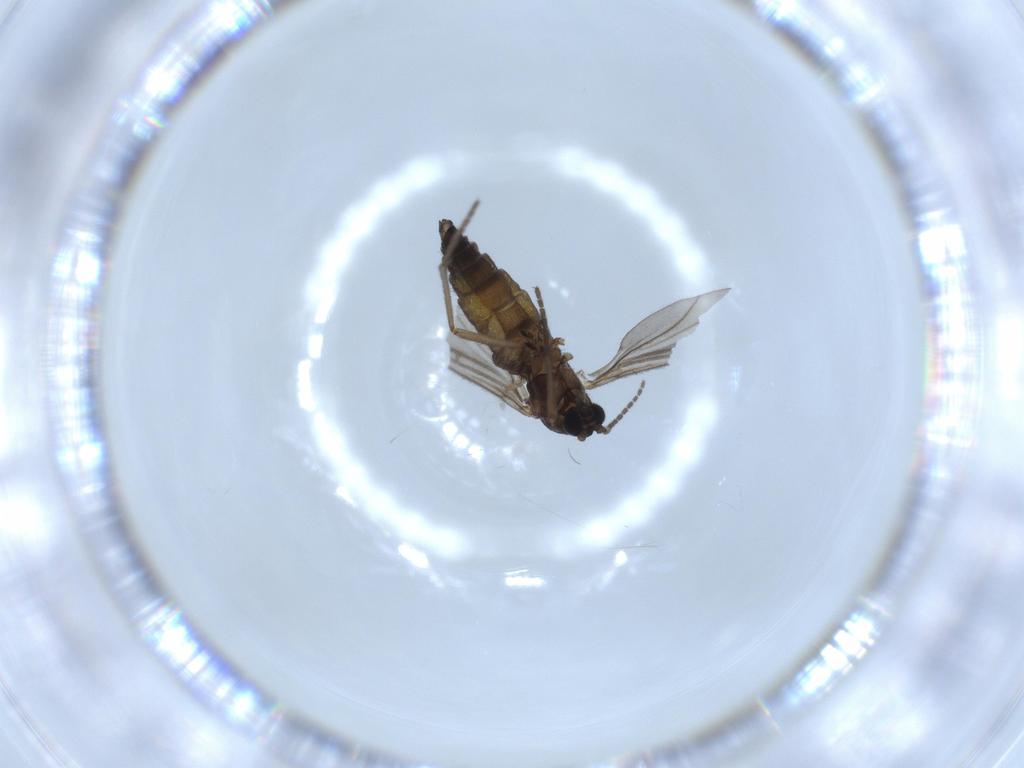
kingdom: Animalia
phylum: Arthropoda
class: Insecta
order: Diptera
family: Sciaridae
